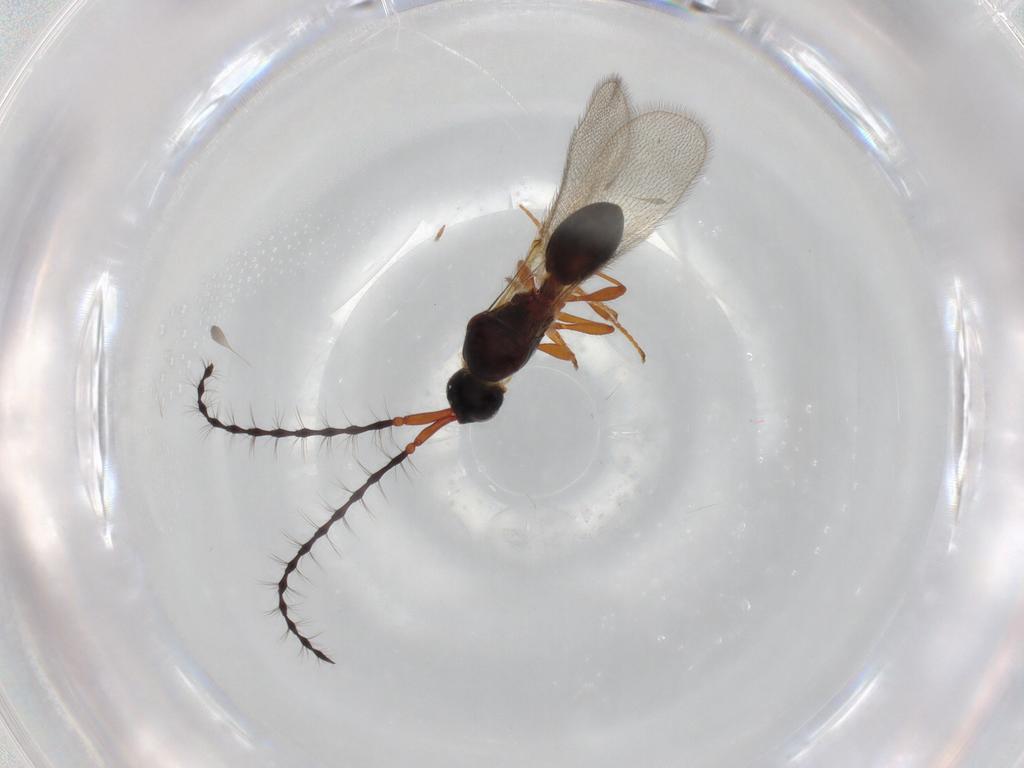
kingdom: Animalia
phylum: Arthropoda
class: Insecta
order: Hymenoptera
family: Diapriidae
